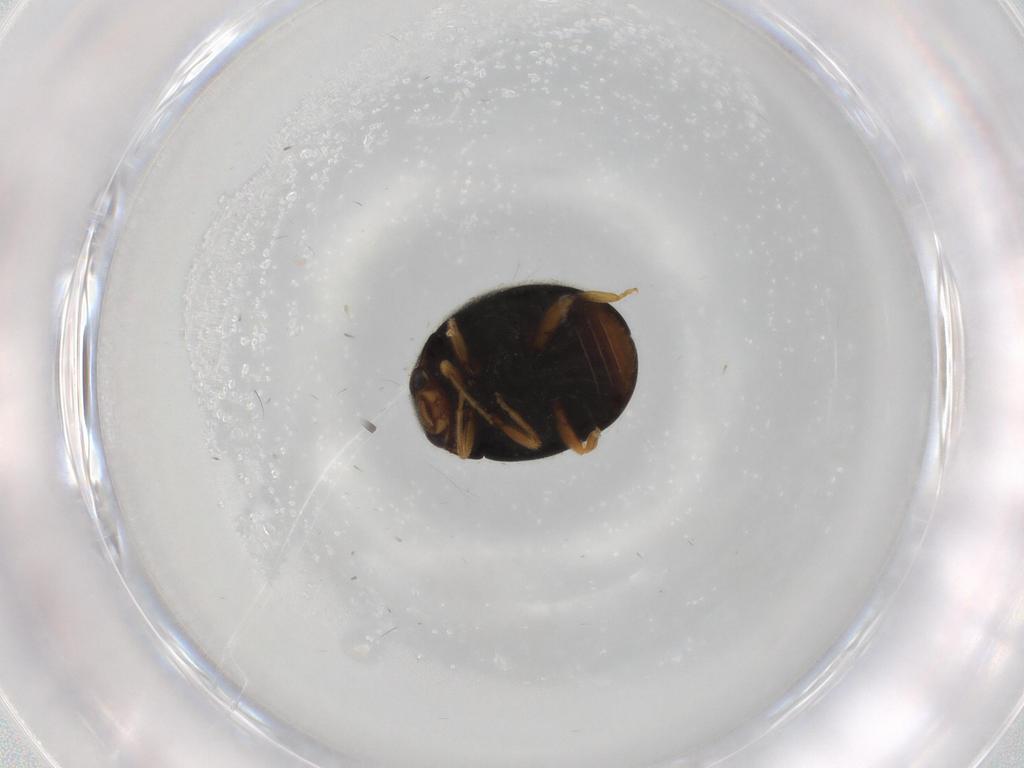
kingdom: Animalia
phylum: Arthropoda
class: Insecta
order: Coleoptera
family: Coccinellidae
